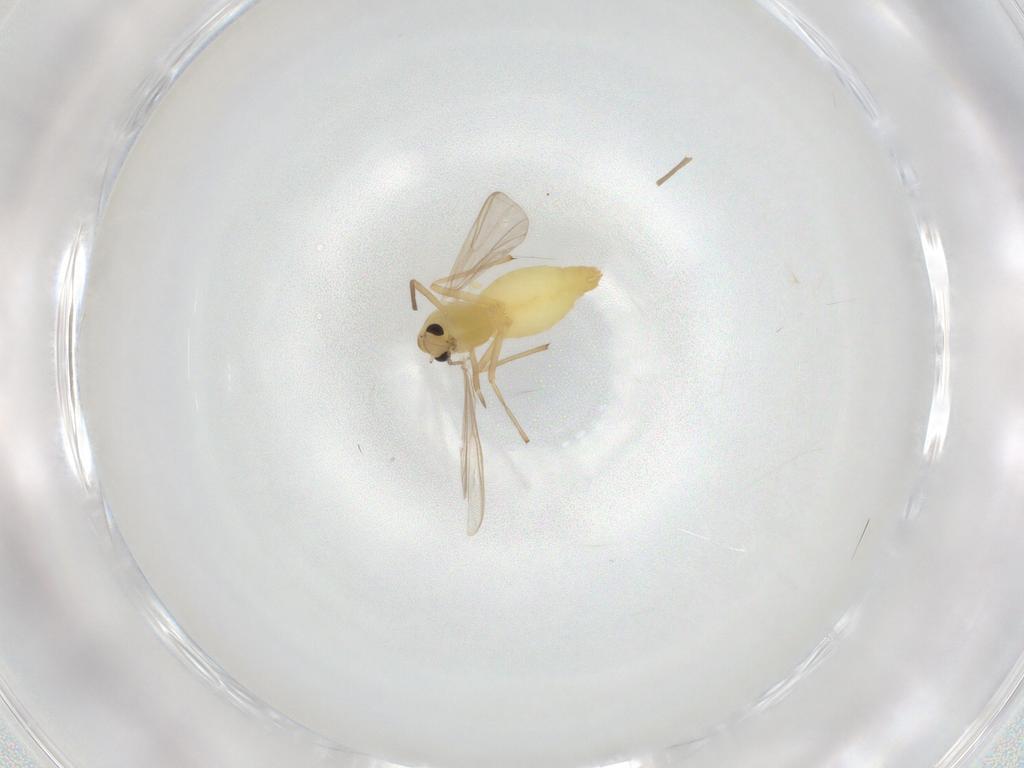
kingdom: Animalia
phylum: Arthropoda
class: Insecta
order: Diptera
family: Chironomidae
